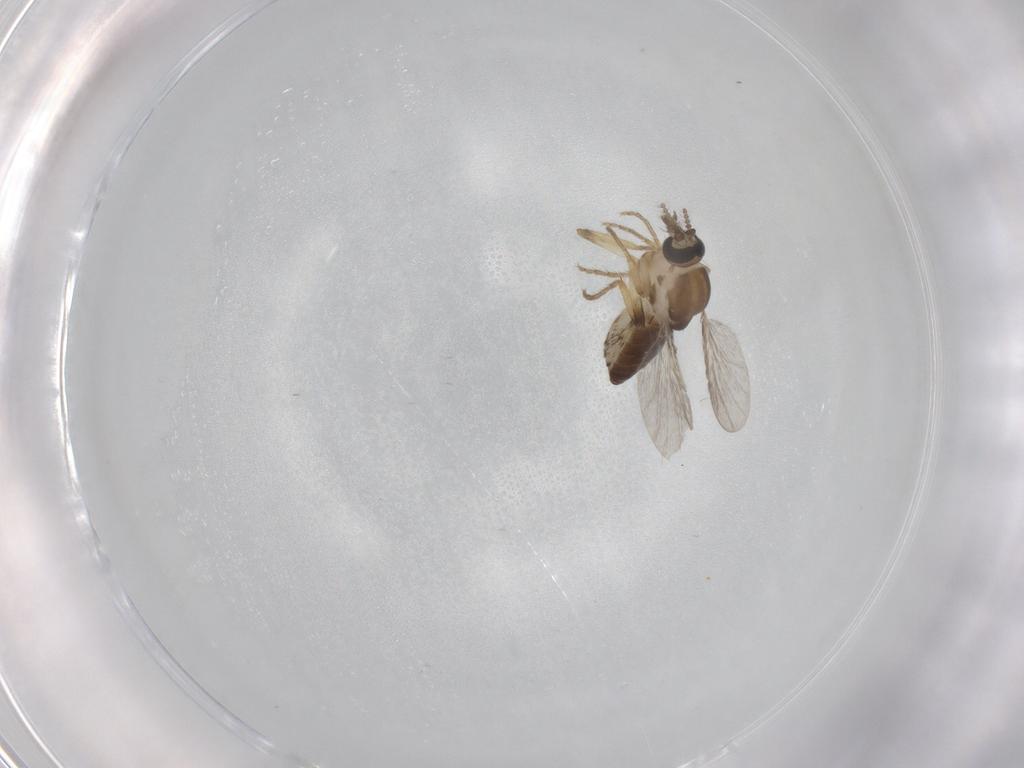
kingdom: Animalia
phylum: Arthropoda
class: Insecta
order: Diptera
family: Ceratopogonidae
